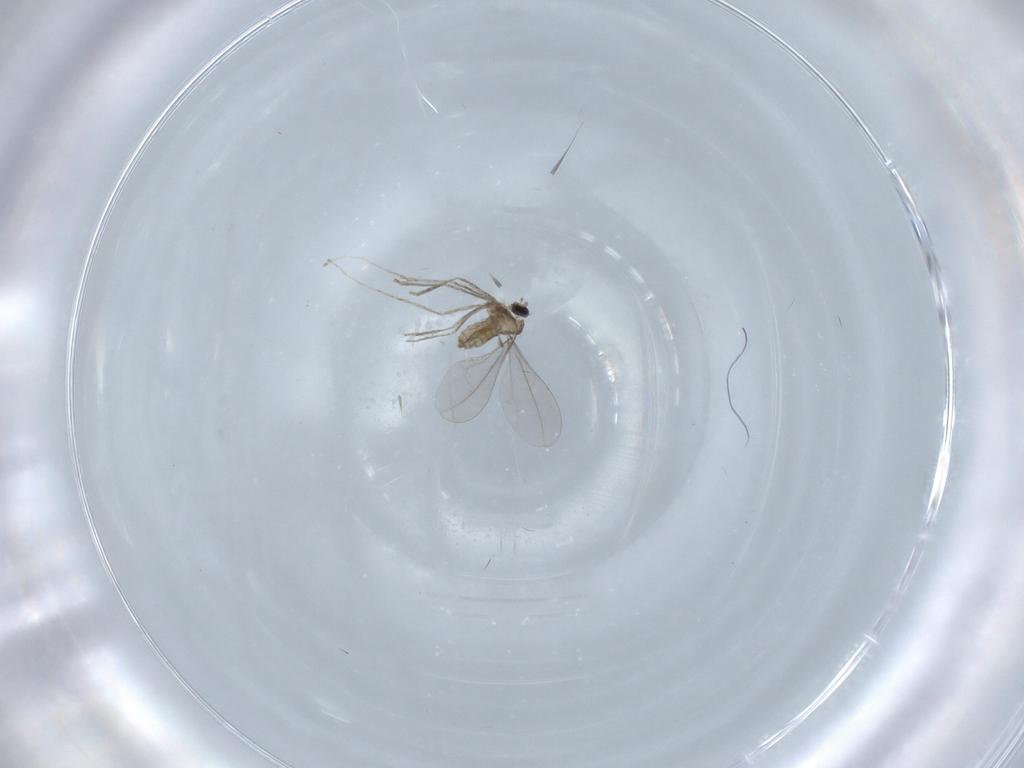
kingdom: Animalia
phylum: Arthropoda
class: Insecta
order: Diptera
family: Cecidomyiidae
